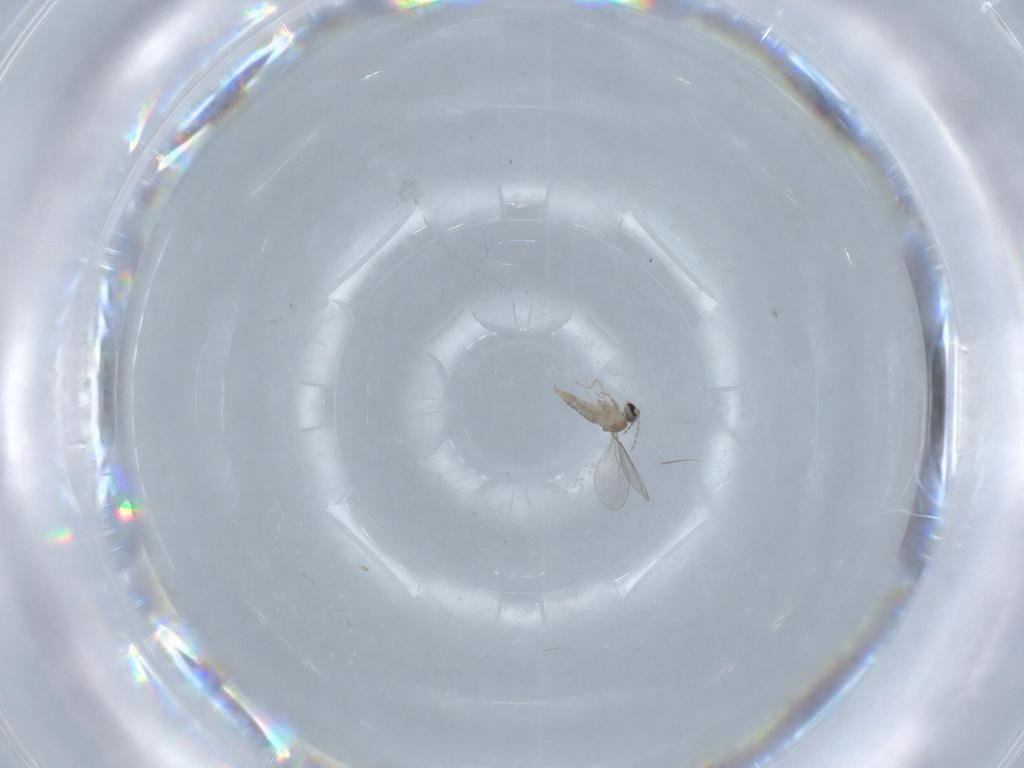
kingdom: Animalia
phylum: Arthropoda
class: Insecta
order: Diptera
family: Cecidomyiidae
